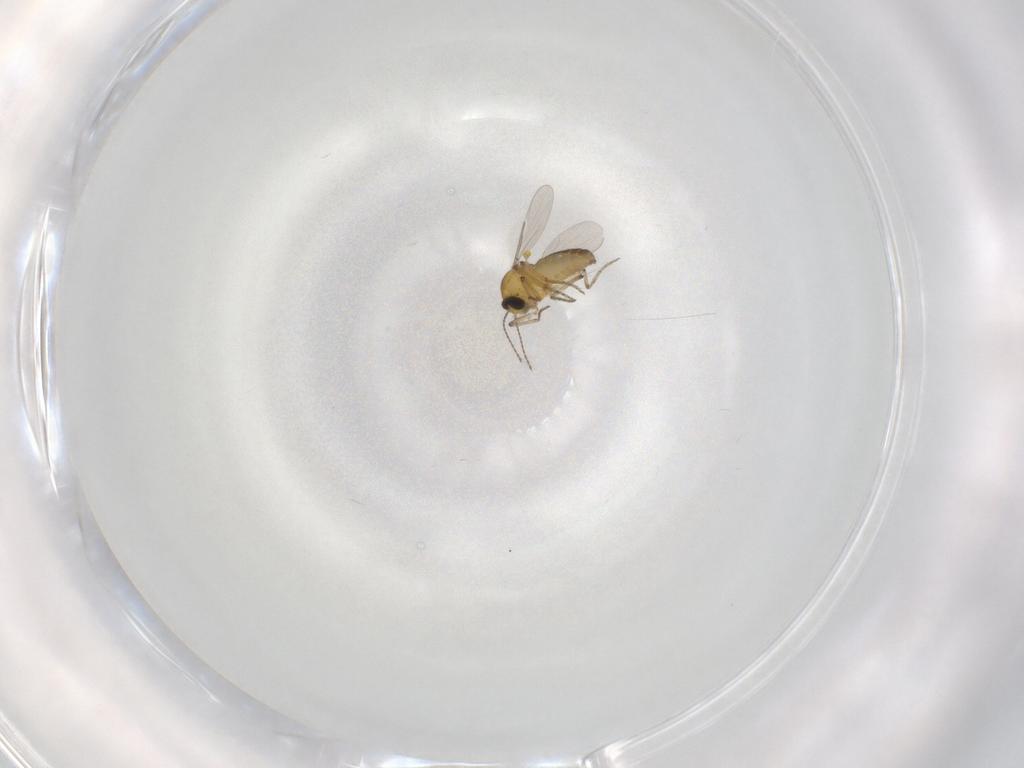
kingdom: Animalia
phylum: Arthropoda
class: Insecta
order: Diptera
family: Ceratopogonidae
